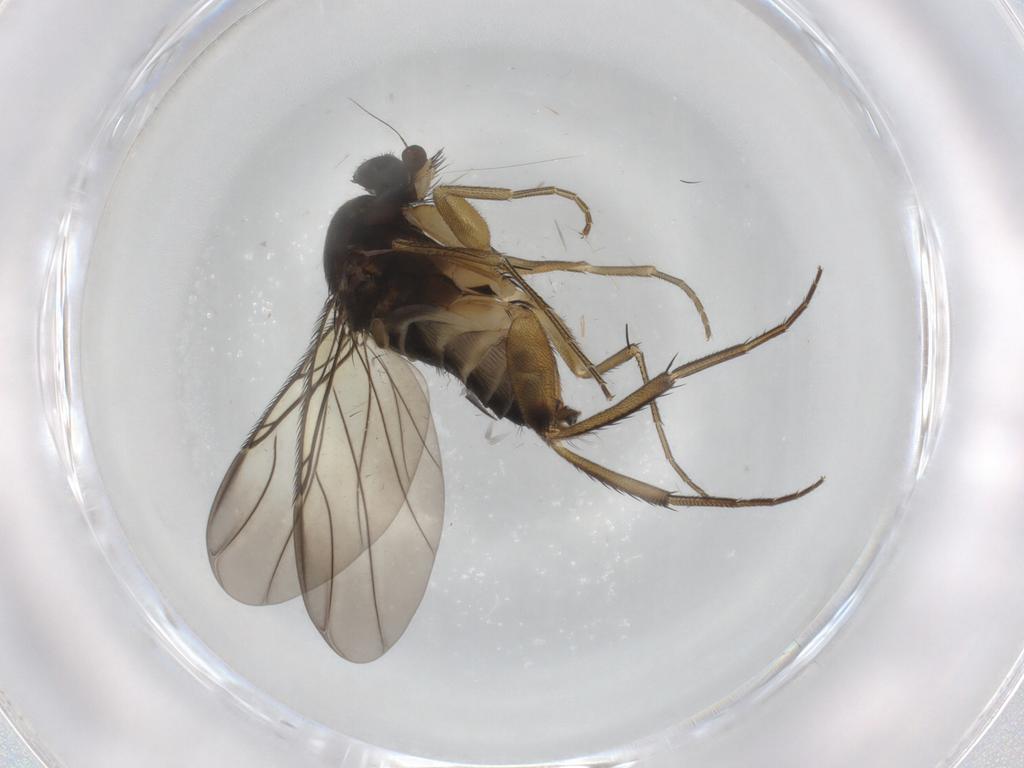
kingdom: Animalia
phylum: Arthropoda
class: Insecta
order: Diptera
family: Phoridae
